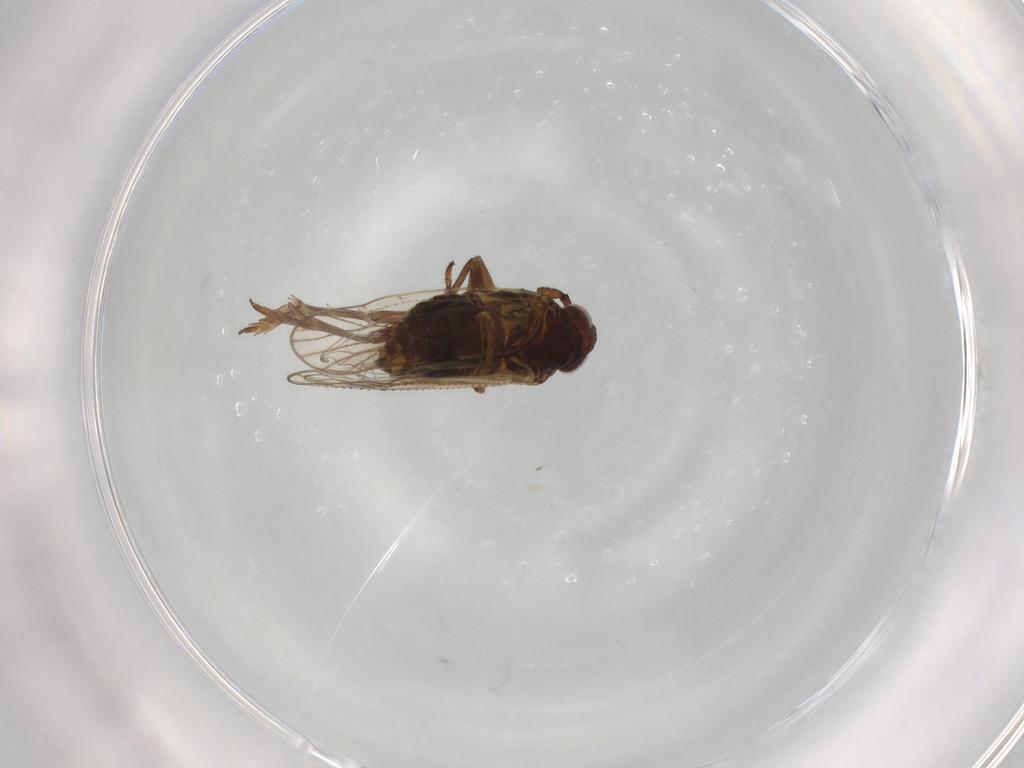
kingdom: Animalia
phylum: Arthropoda
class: Insecta
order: Hemiptera
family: Delphacidae
